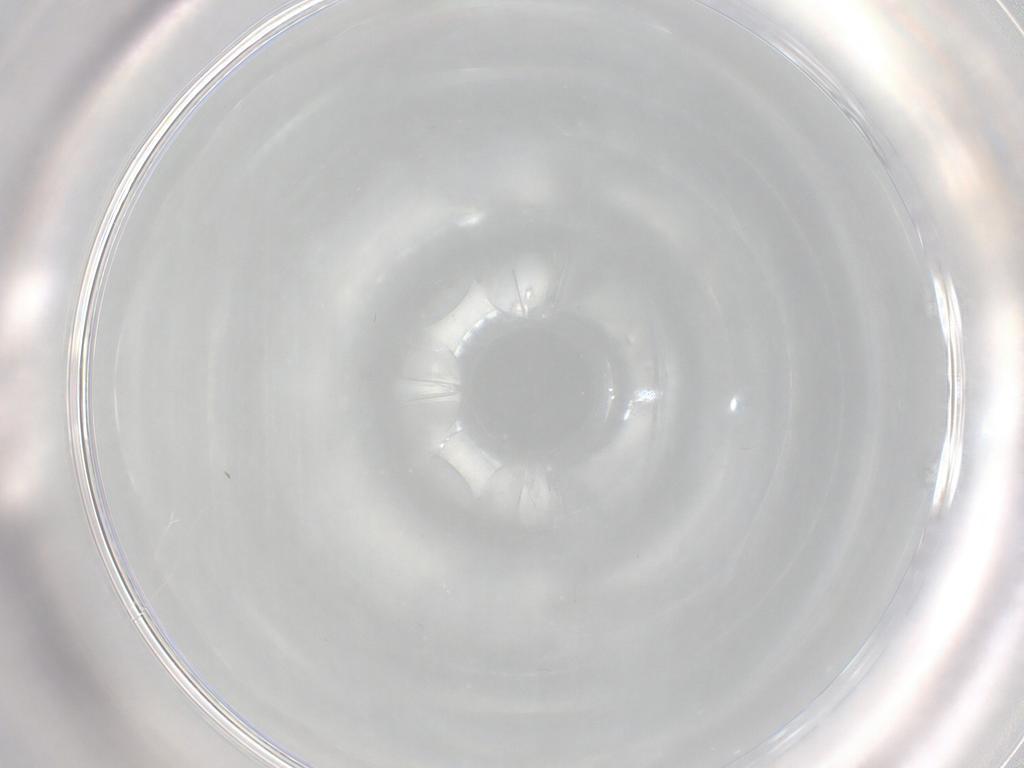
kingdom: Animalia
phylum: Arthropoda
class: Insecta
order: Diptera
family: Cecidomyiidae
